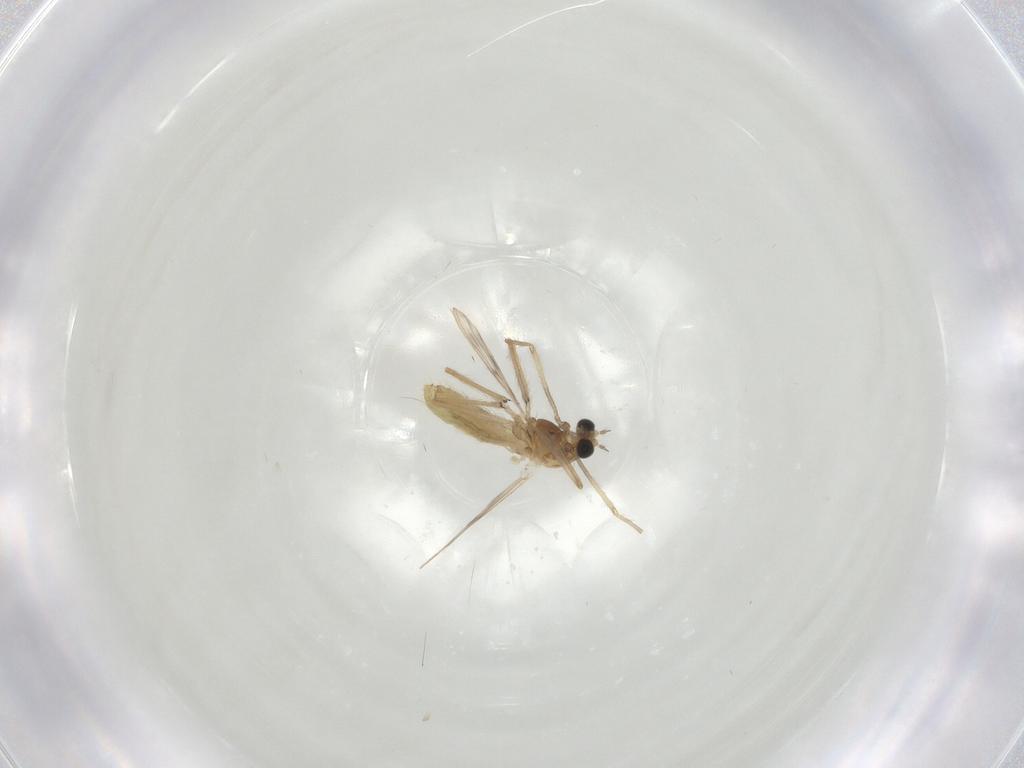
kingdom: Animalia
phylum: Arthropoda
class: Insecta
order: Diptera
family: Chironomidae
